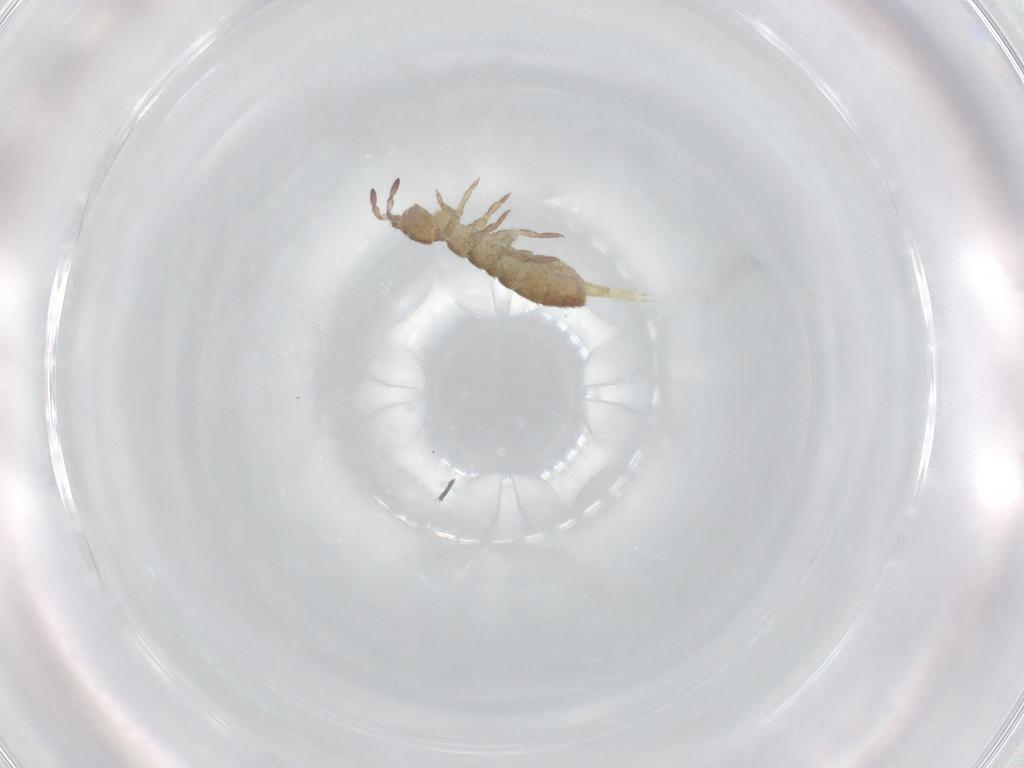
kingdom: Animalia
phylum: Arthropoda
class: Collembola
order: Entomobryomorpha
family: Isotomidae
